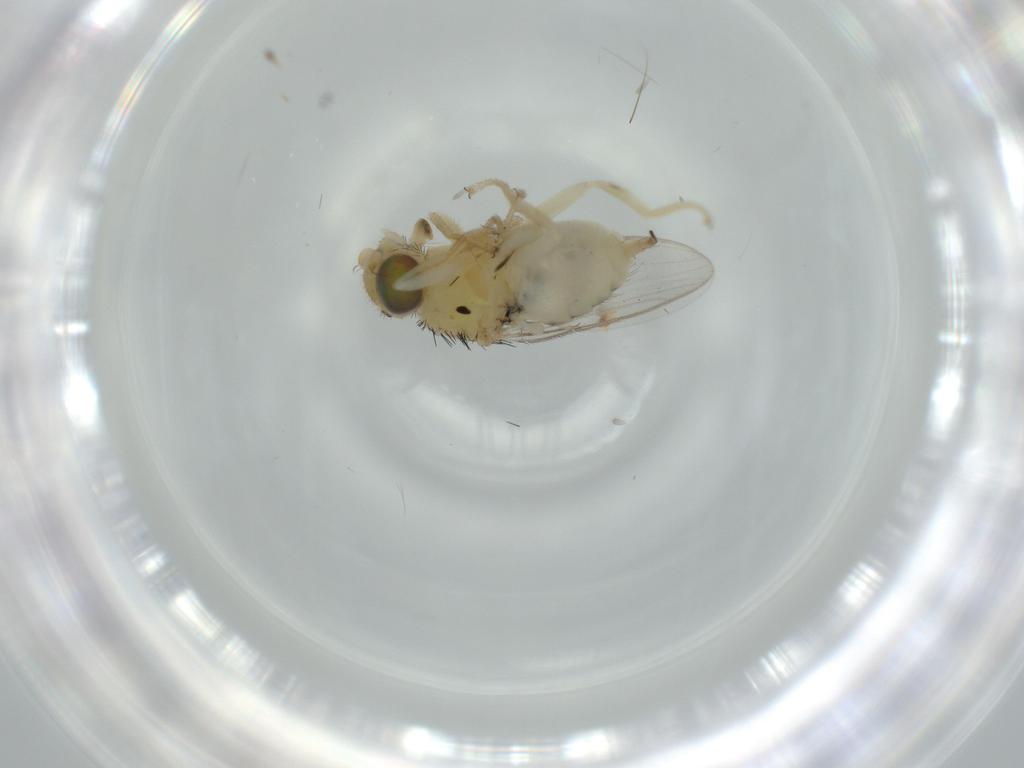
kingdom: Animalia
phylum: Arthropoda
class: Insecta
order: Diptera
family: Chloropidae
